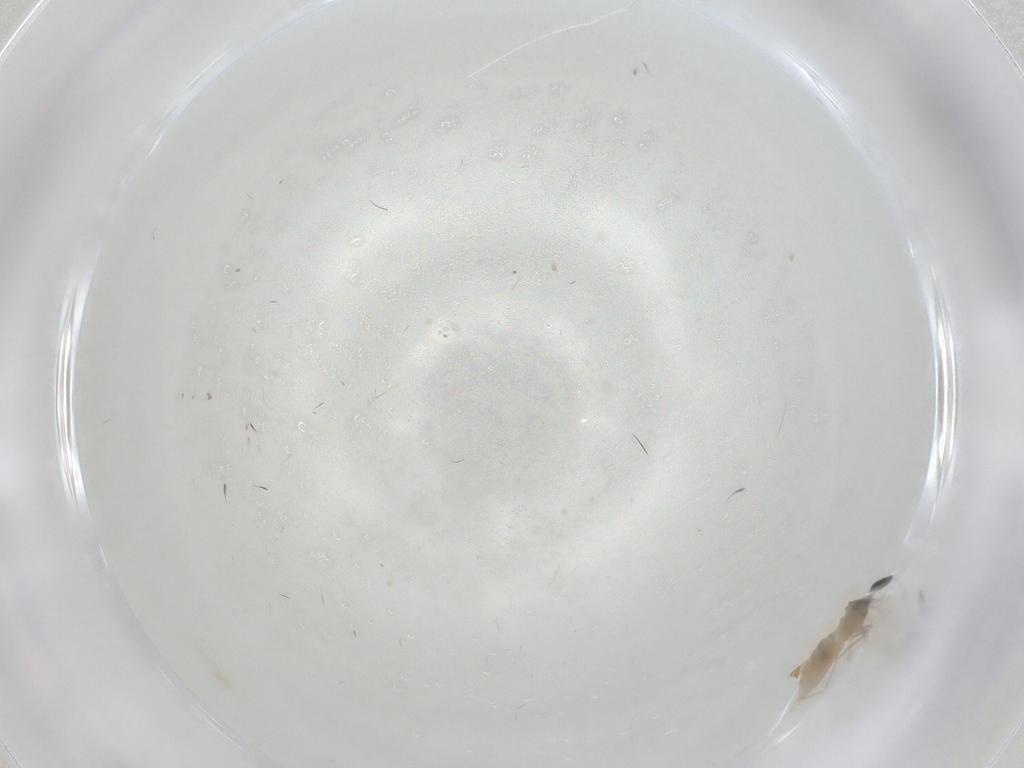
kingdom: Animalia
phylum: Arthropoda
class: Insecta
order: Diptera
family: Cecidomyiidae
